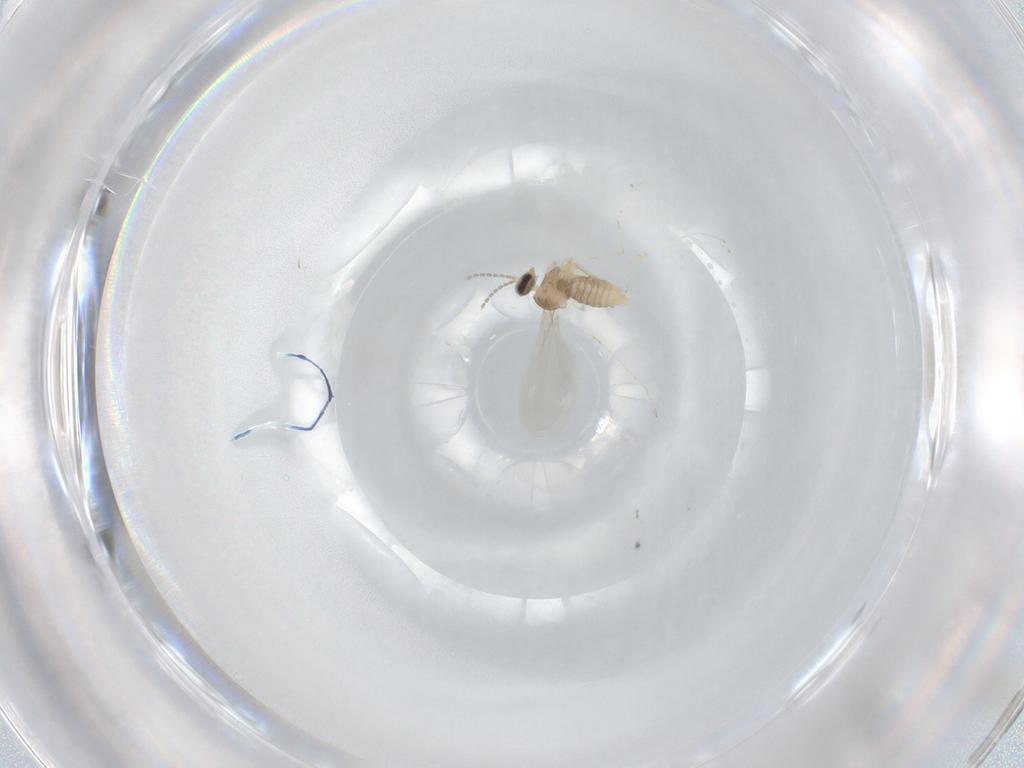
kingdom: Animalia
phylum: Arthropoda
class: Insecta
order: Diptera
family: Cecidomyiidae
